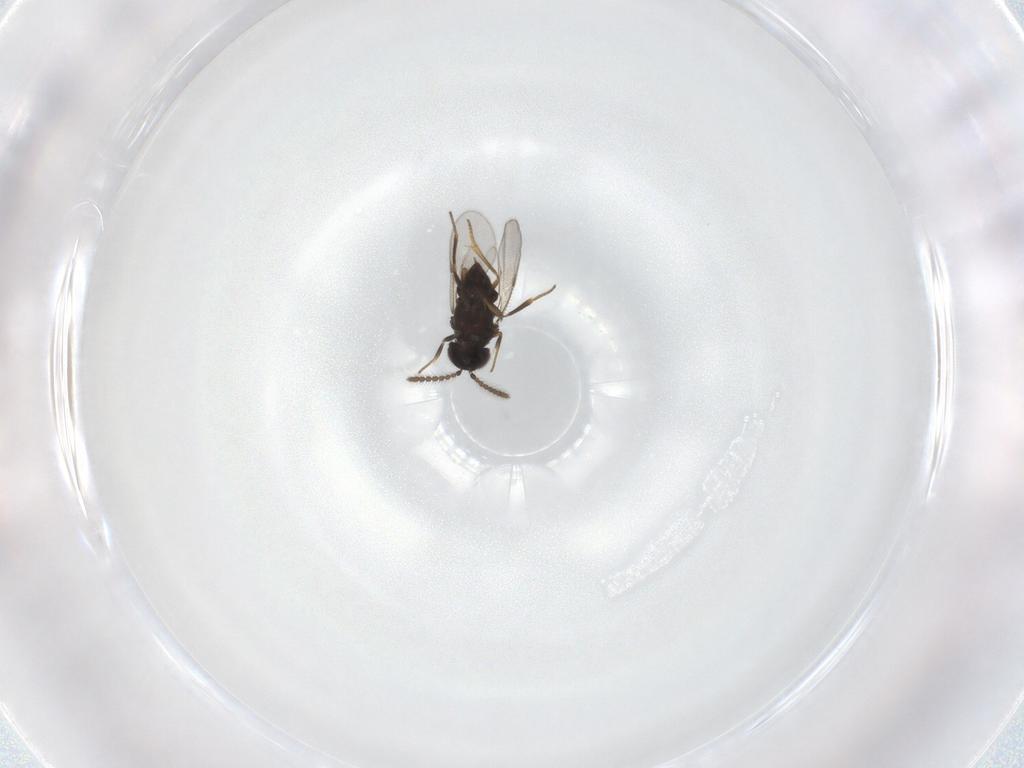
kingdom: Animalia
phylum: Arthropoda
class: Insecta
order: Hymenoptera
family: Encyrtidae
